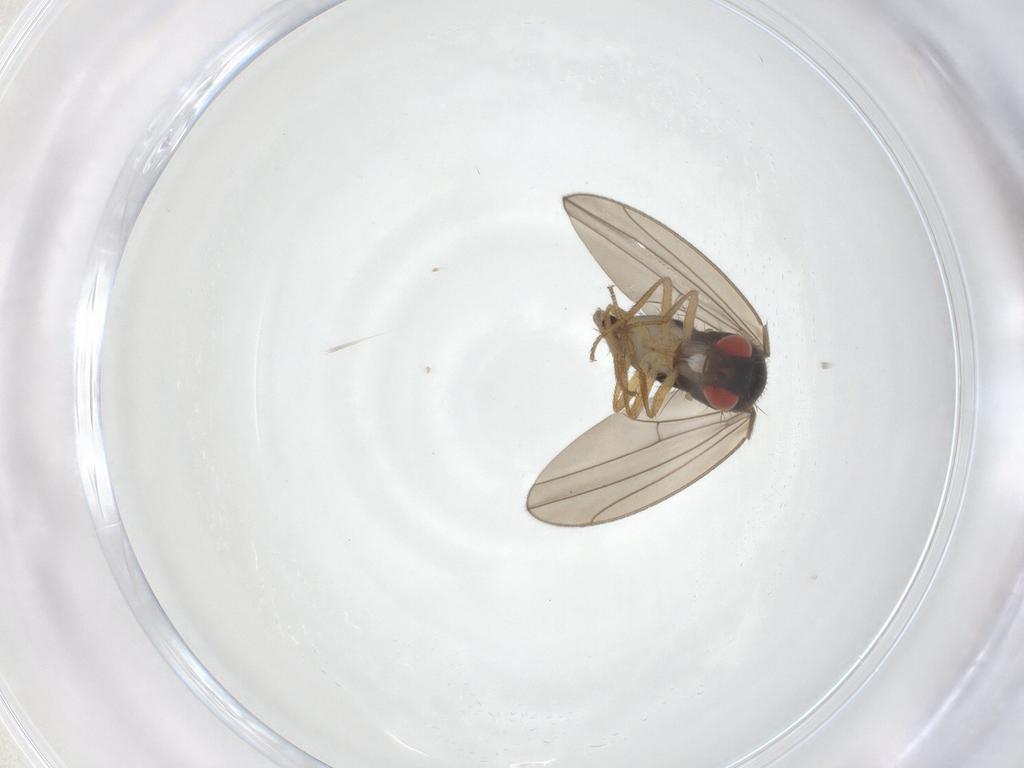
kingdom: Animalia
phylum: Arthropoda
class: Insecta
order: Diptera
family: Drosophilidae
